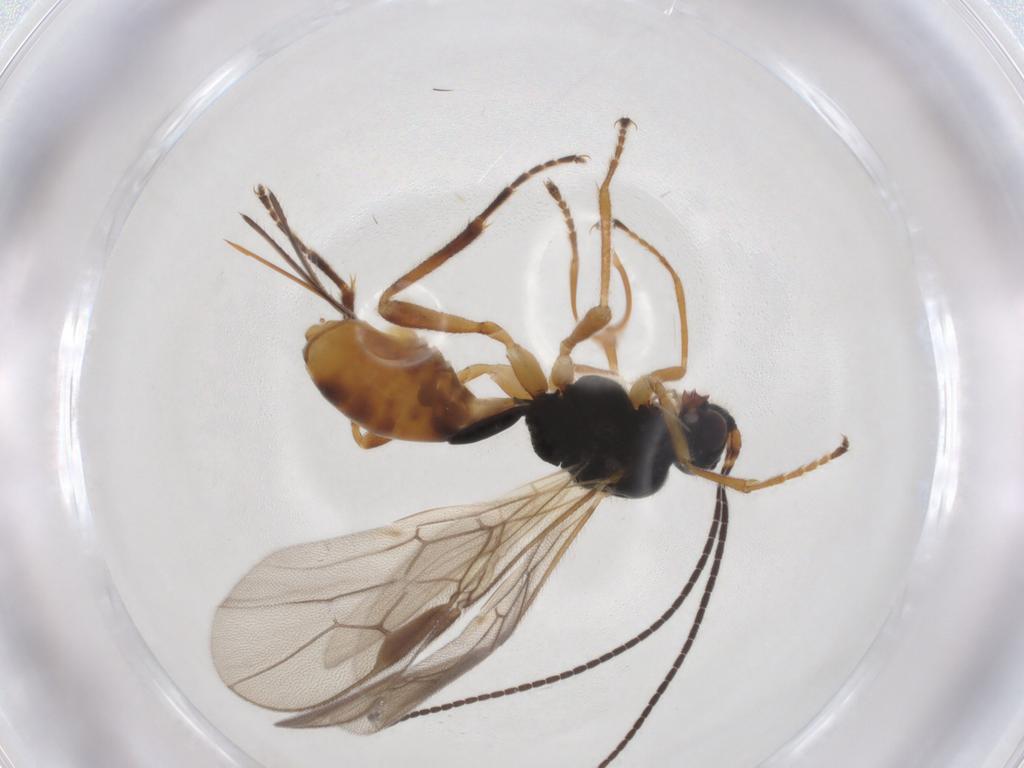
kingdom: Animalia
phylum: Arthropoda
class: Insecta
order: Hymenoptera
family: Braconidae
